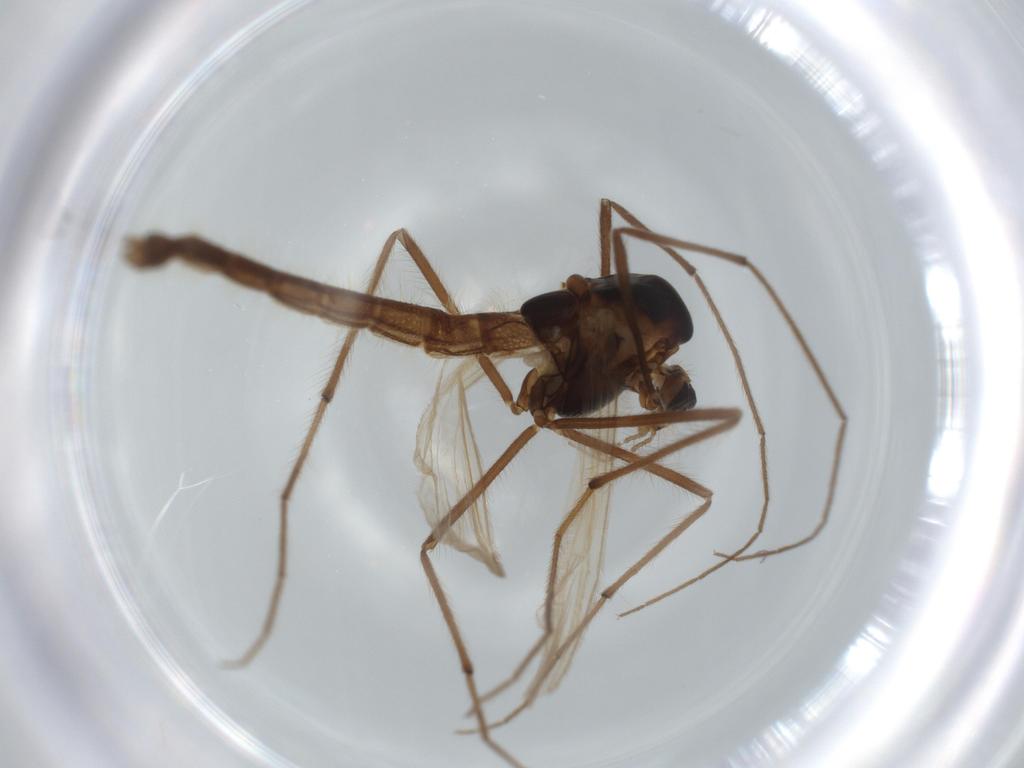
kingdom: Animalia
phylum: Arthropoda
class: Insecta
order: Diptera
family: Chironomidae
